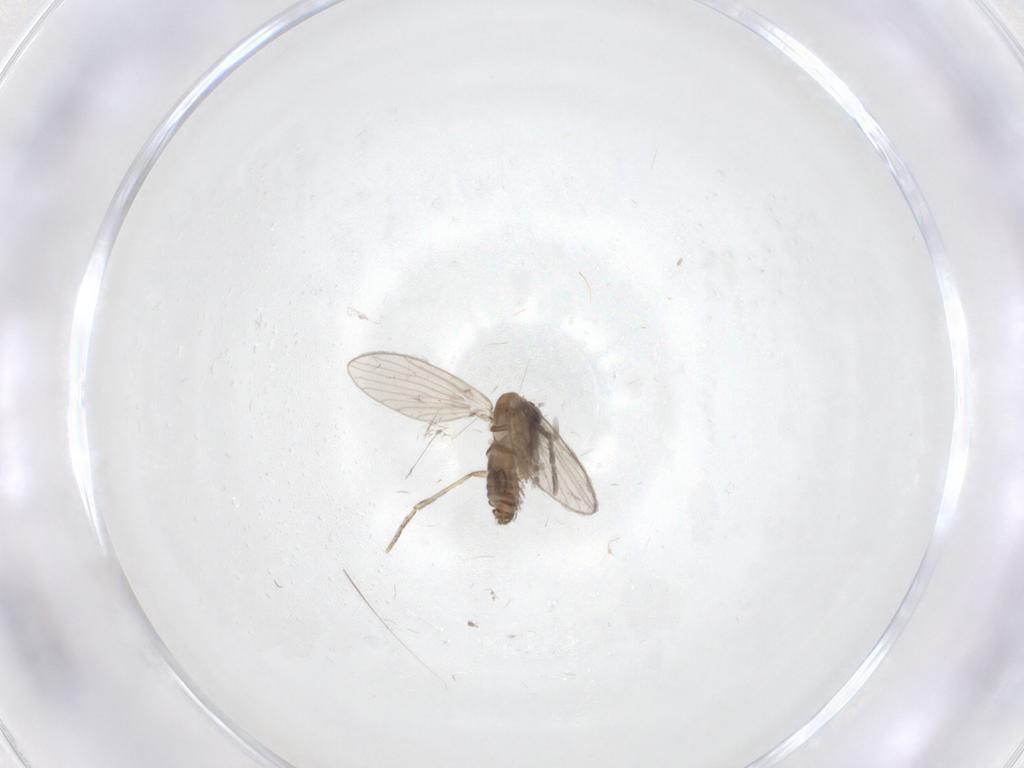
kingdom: Animalia
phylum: Arthropoda
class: Insecta
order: Diptera
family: Psychodidae
